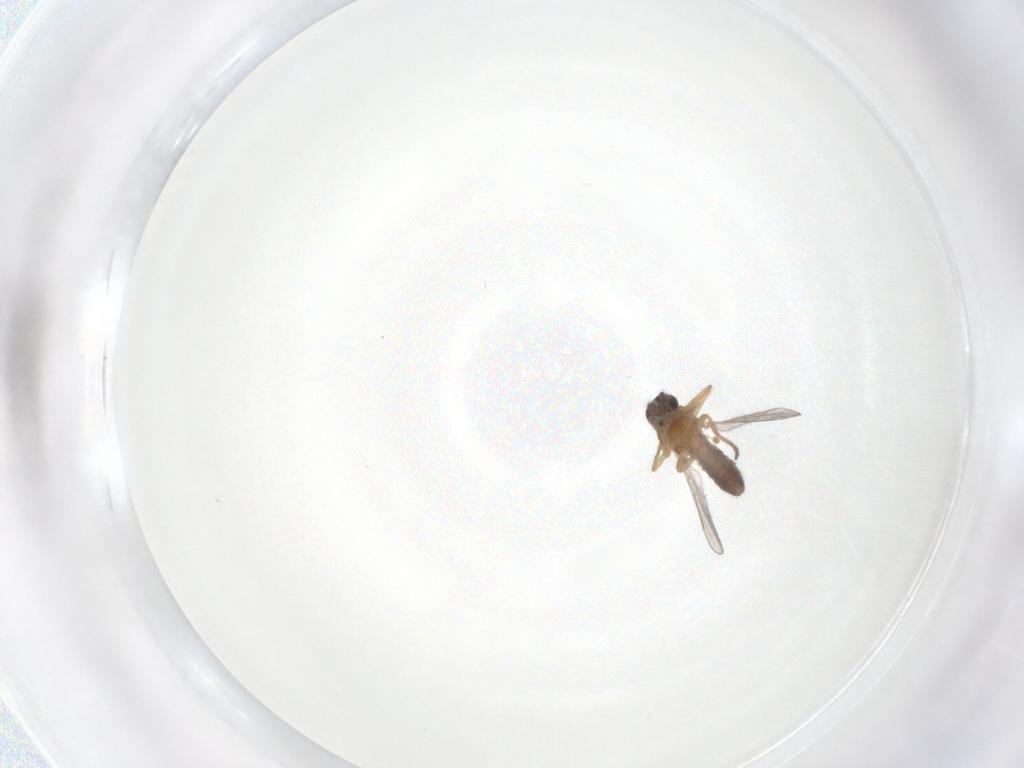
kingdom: Animalia
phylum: Arthropoda
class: Insecta
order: Diptera
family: Ceratopogonidae
